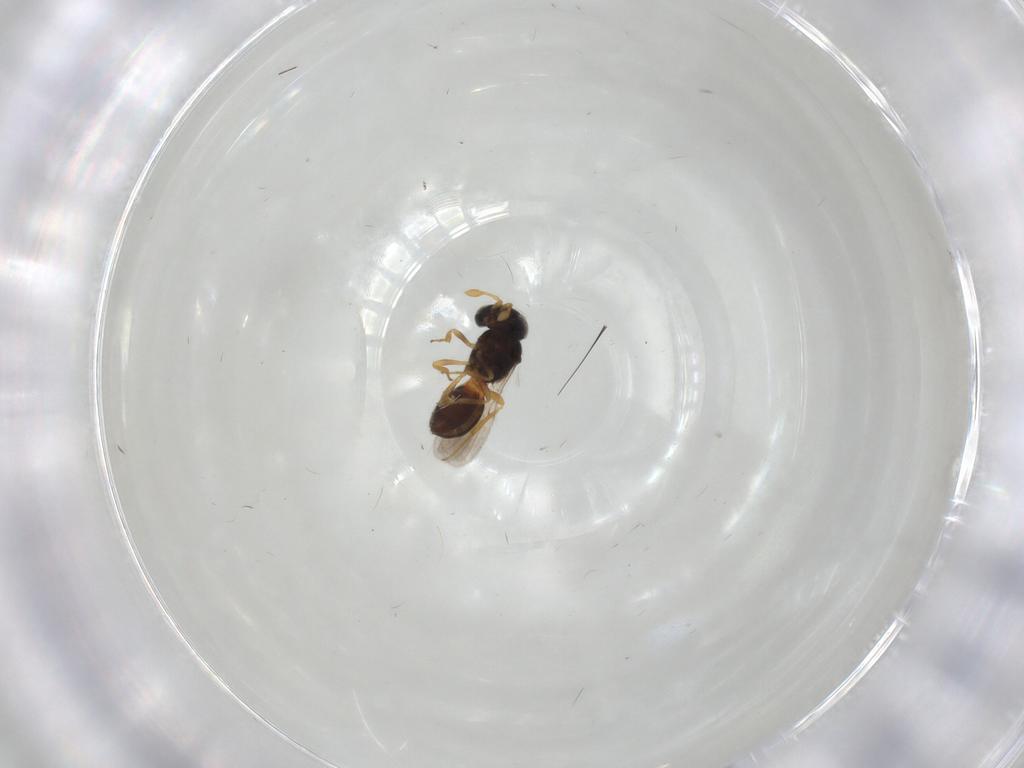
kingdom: Animalia
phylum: Arthropoda
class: Insecta
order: Hymenoptera
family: Scelionidae
